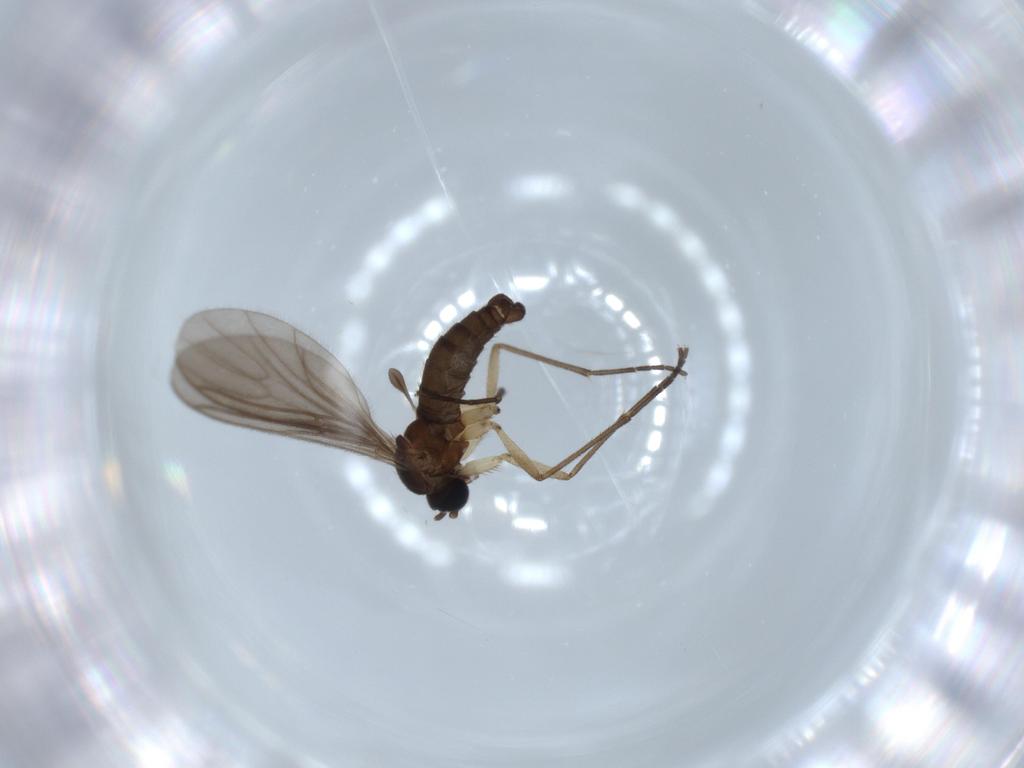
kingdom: Animalia
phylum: Arthropoda
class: Insecta
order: Diptera
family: Sciaridae
